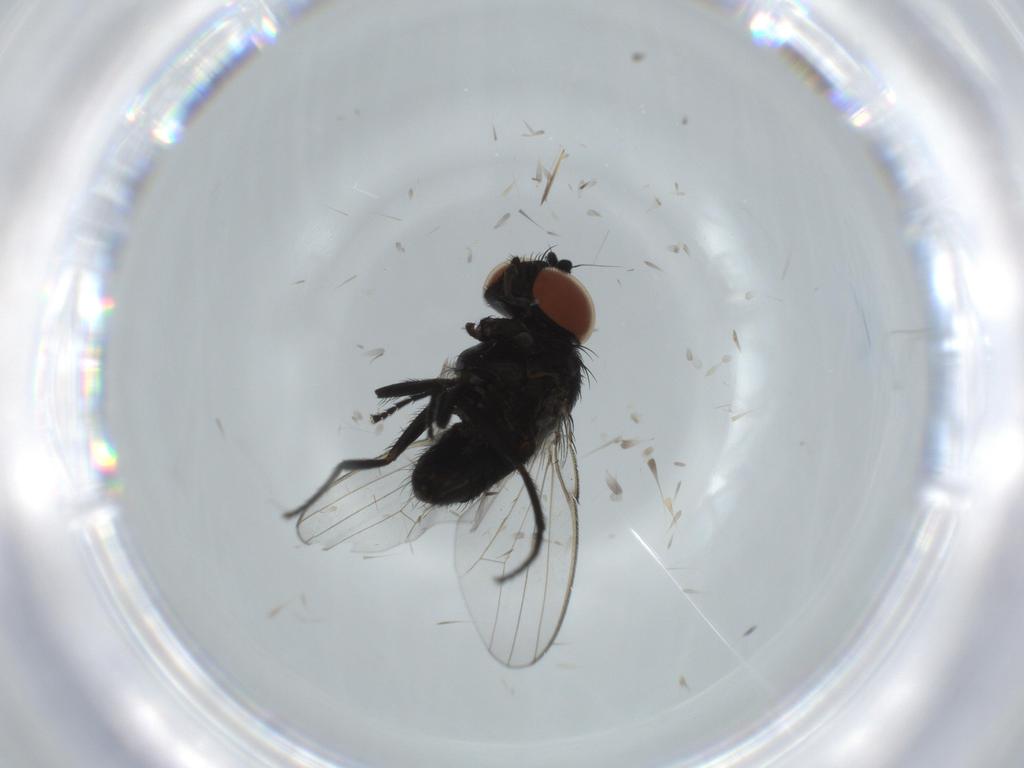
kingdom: Animalia
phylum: Arthropoda
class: Insecta
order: Diptera
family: Milichiidae
